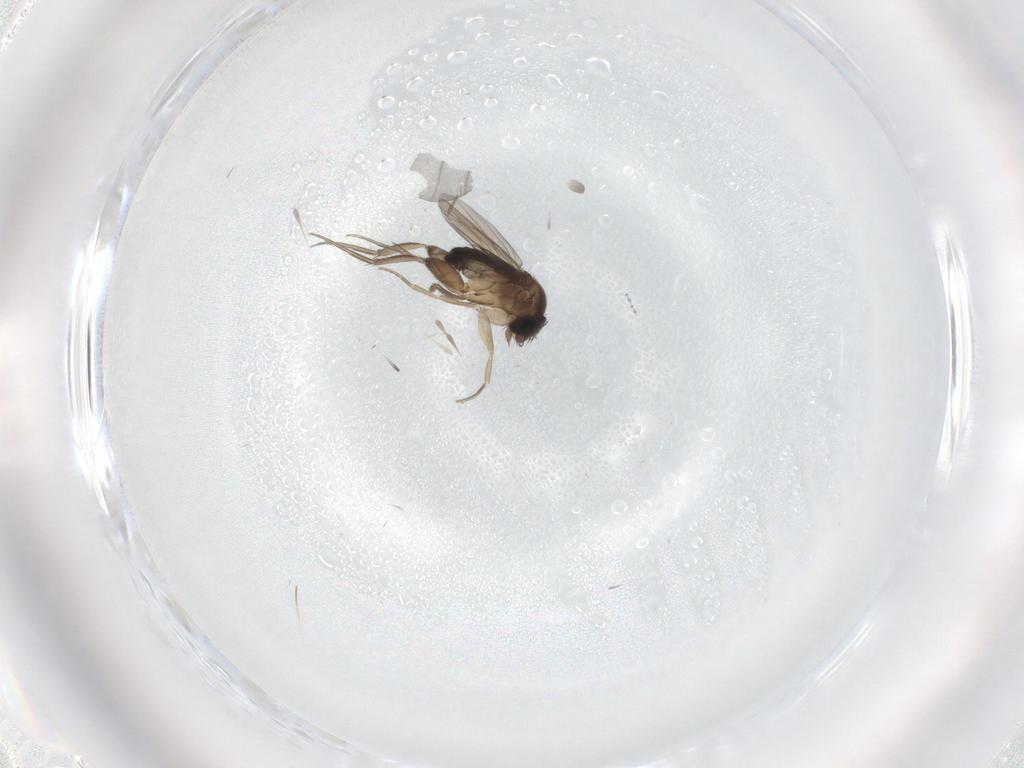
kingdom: Animalia
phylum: Arthropoda
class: Insecta
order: Diptera
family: Phoridae
